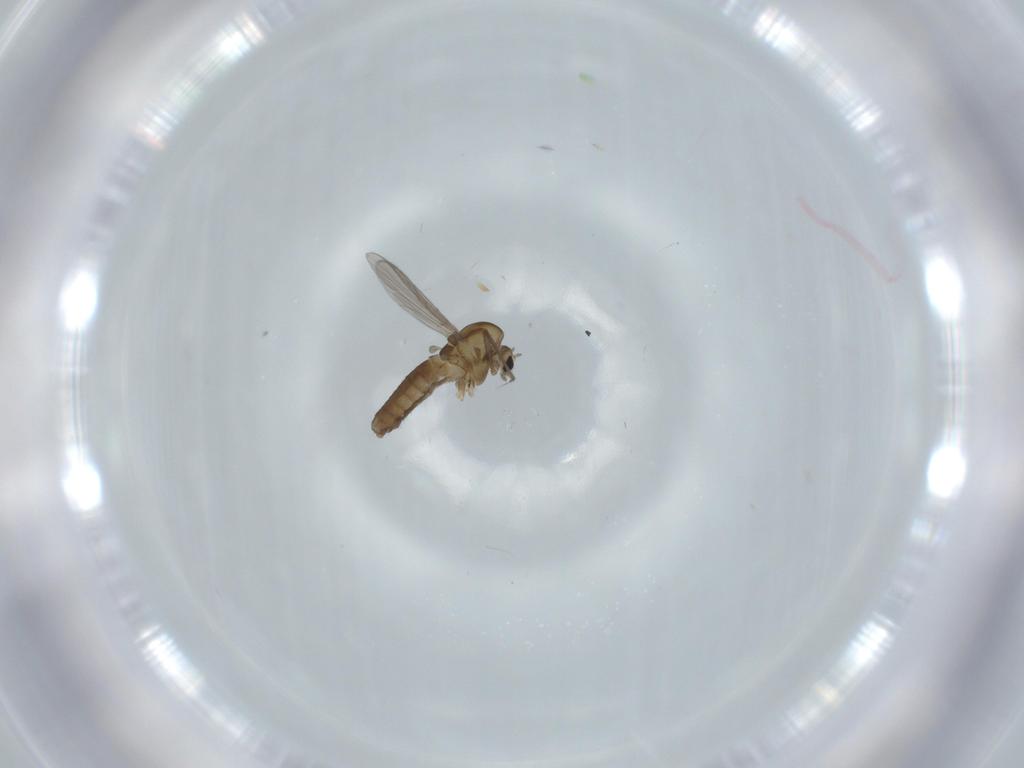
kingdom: Animalia
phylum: Arthropoda
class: Insecta
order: Diptera
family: Chironomidae
